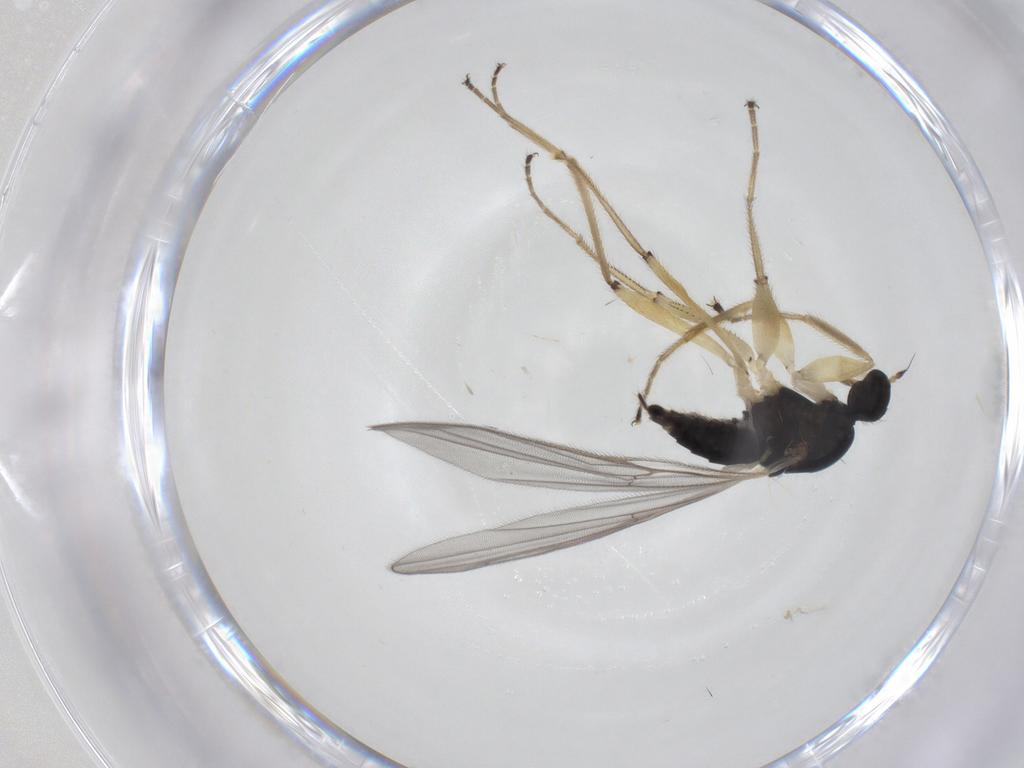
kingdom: Animalia
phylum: Arthropoda
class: Insecta
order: Diptera
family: Hybotidae
